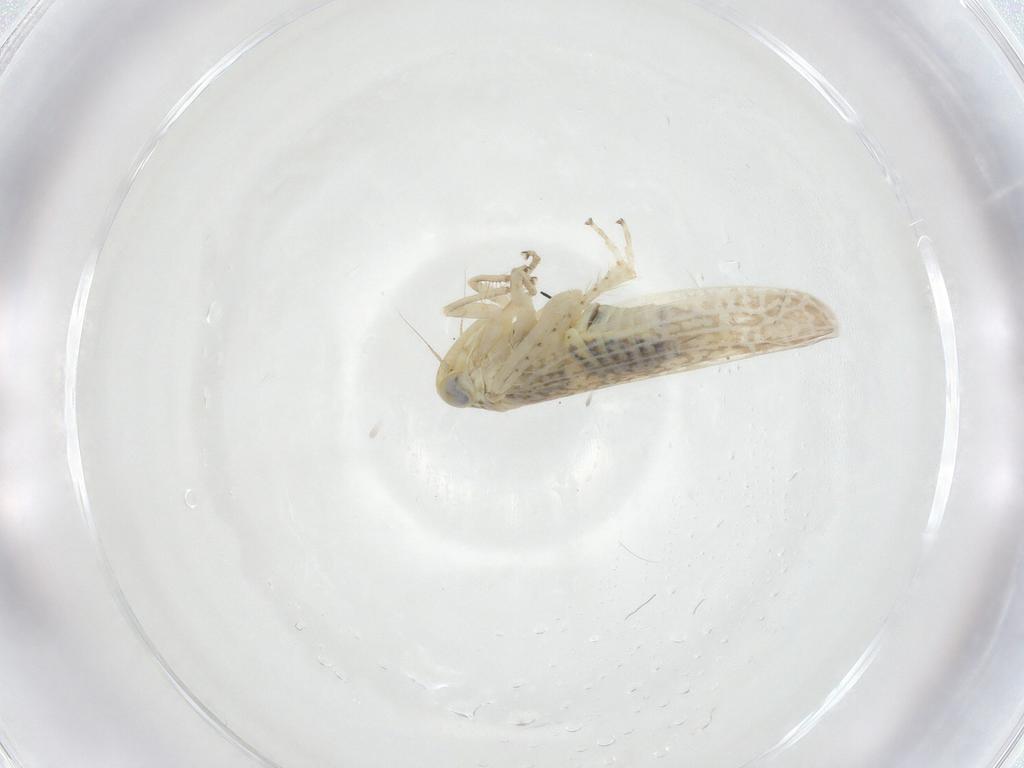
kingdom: Animalia
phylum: Arthropoda
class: Insecta
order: Hemiptera
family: Cicadellidae
